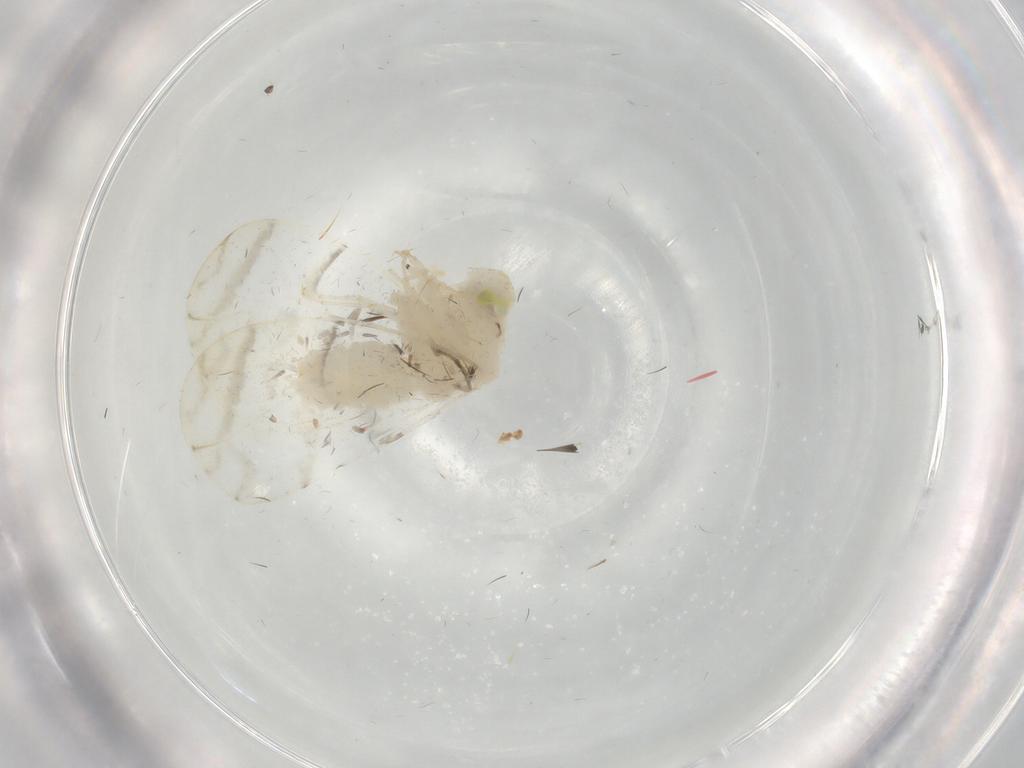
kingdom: Animalia
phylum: Arthropoda
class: Insecta
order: Hemiptera
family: Aleyrodidae
